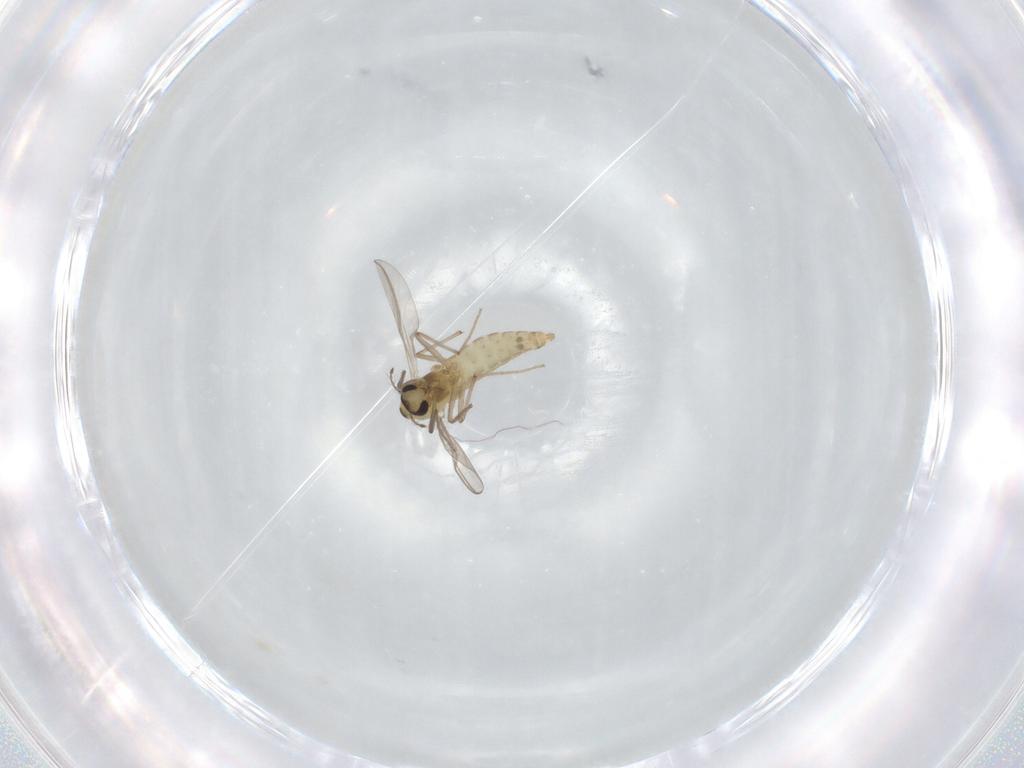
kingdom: Animalia
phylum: Arthropoda
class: Insecta
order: Diptera
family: Chironomidae
